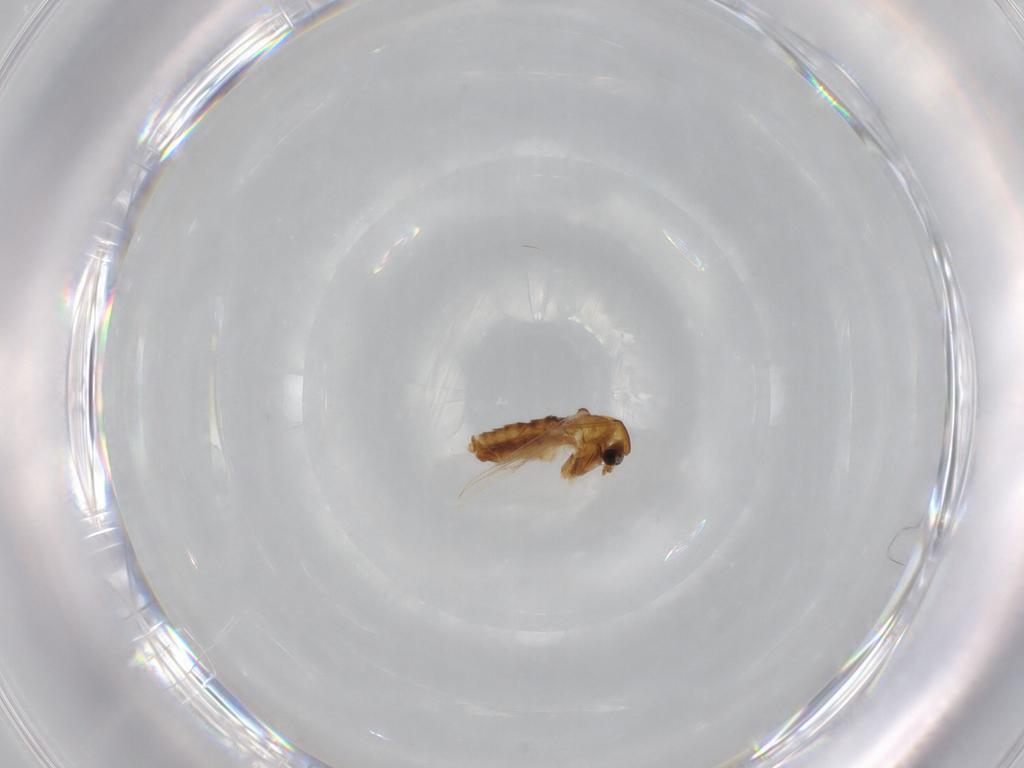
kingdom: Animalia
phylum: Arthropoda
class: Insecta
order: Diptera
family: Chironomidae
